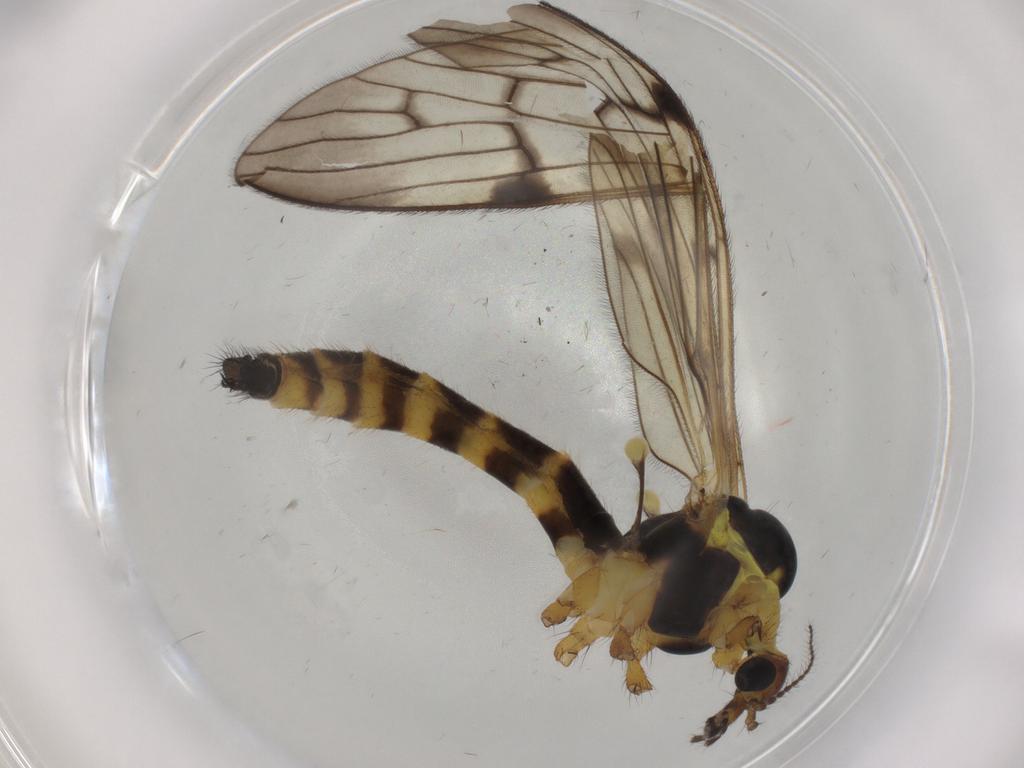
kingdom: Animalia
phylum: Arthropoda
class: Insecta
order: Diptera
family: Limoniidae
